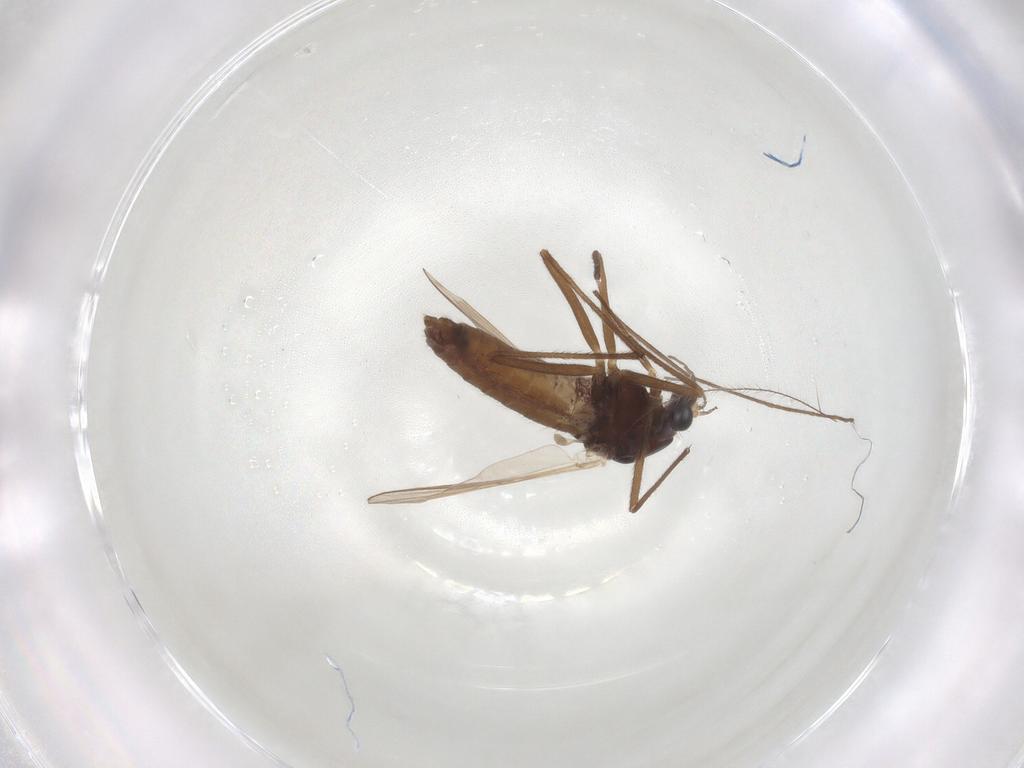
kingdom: Animalia
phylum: Arthropoda
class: Insecta
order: Diptera
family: Chironomidae
